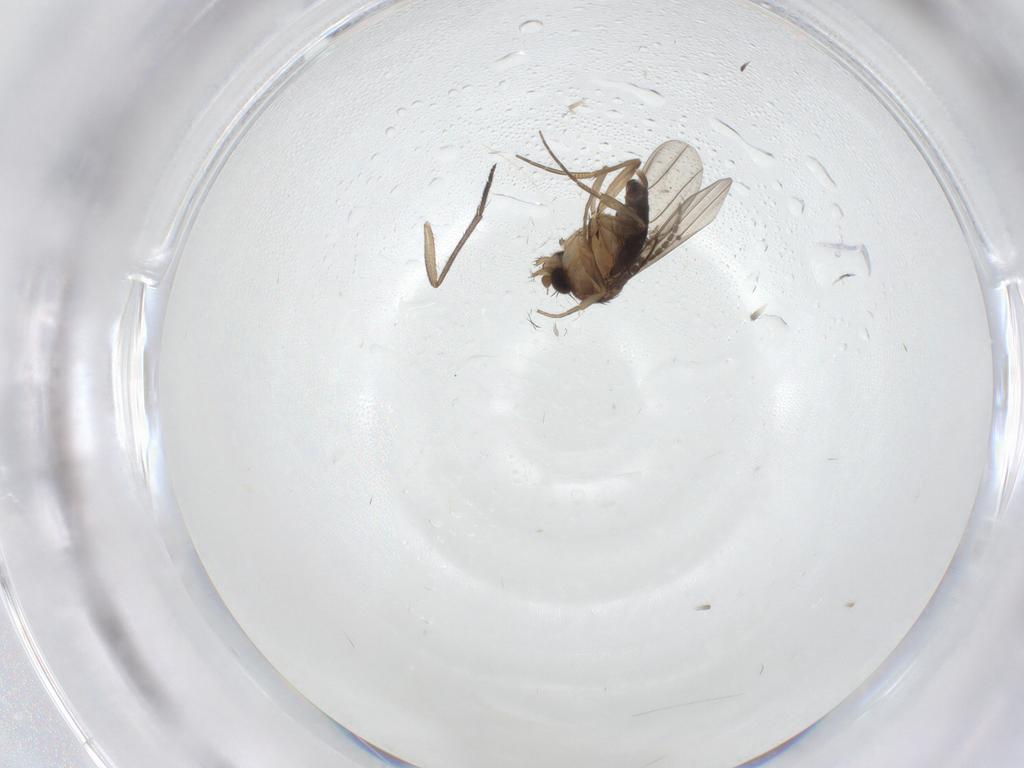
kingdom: Animalia
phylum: Arthropoda
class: Insecta
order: Diptera
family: Phoridae
